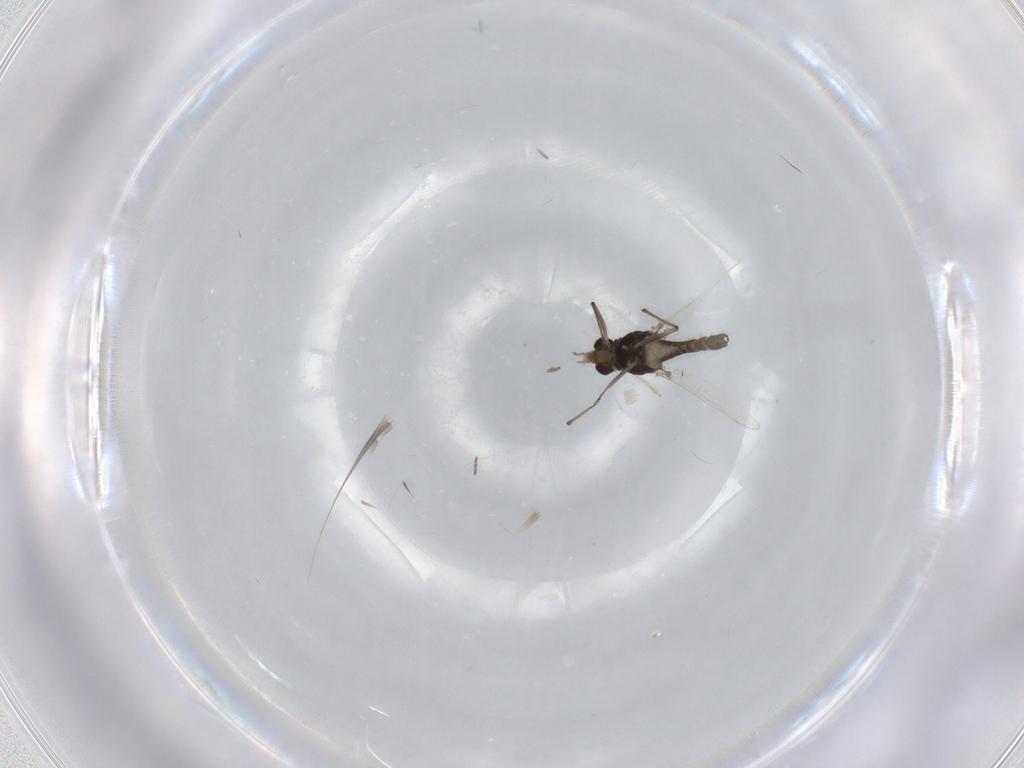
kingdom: Animalia
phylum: Arthropoda
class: Insecta
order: Diptera
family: Chironomidae
